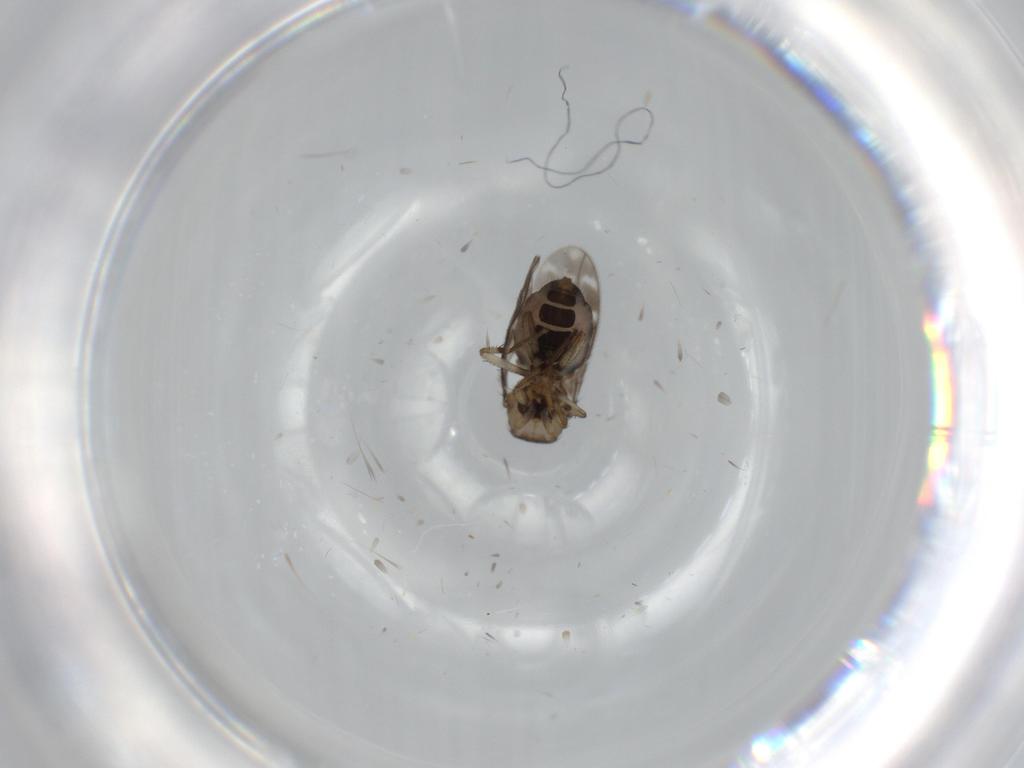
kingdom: Animalia
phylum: Arthropoda
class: Insecta
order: Diptera
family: Sphaeroceridae
